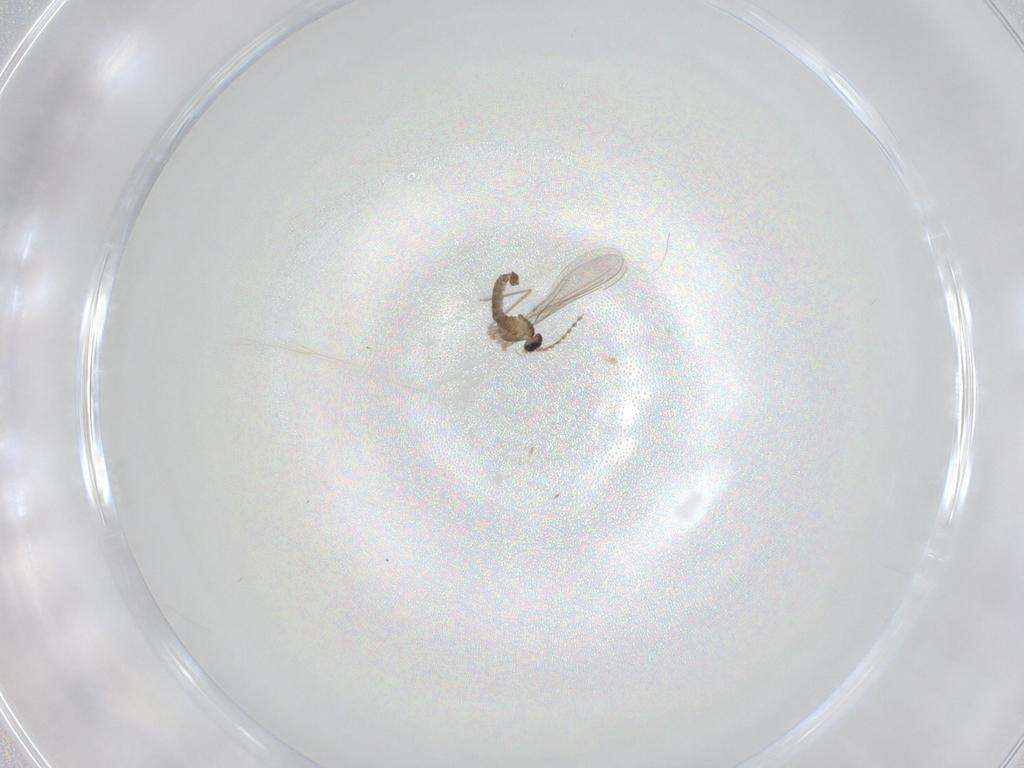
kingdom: Animalia
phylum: Arthropoda
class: Insecta
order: Diptera
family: Cecidomyiidae
